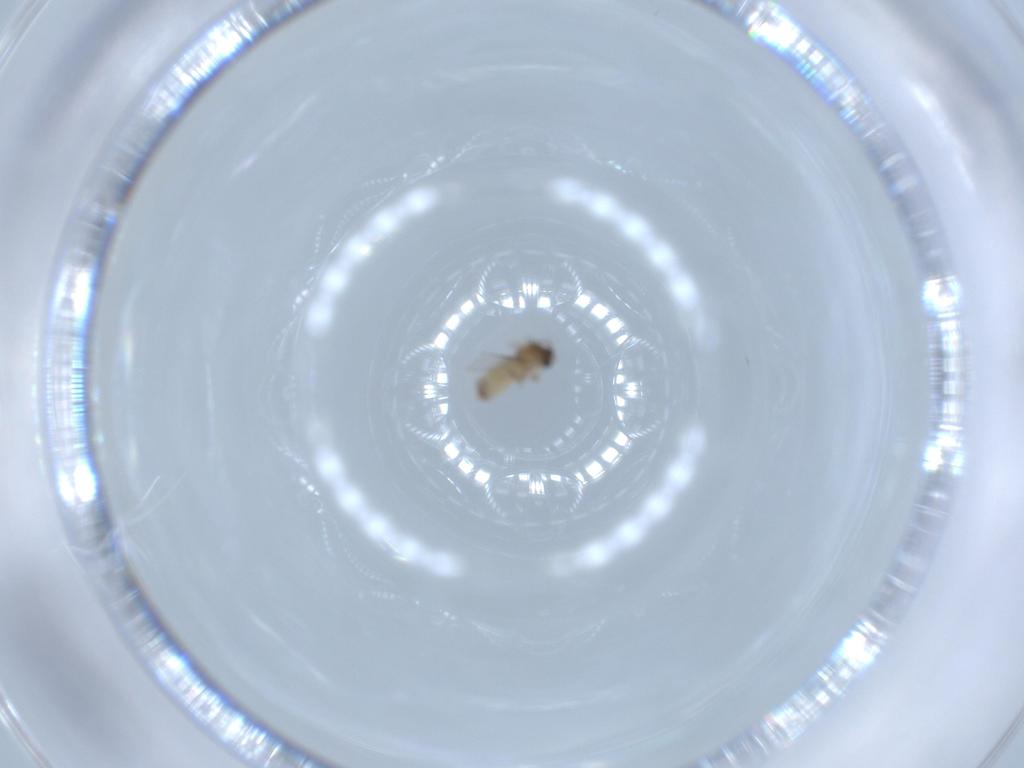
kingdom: Animalia
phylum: Arthropoda
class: Insecta
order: Diptera
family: Cecidomyiidae
